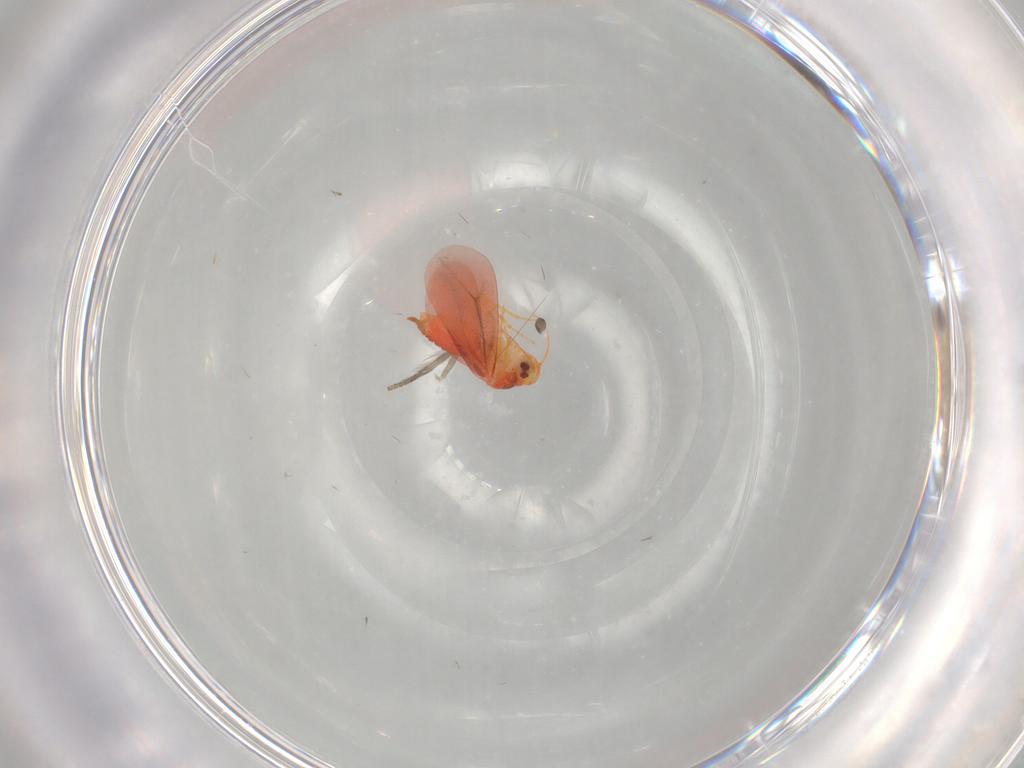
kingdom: Animalia
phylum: Arthropoda
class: Insecta
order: Hemiptera
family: Aleyrodidae
